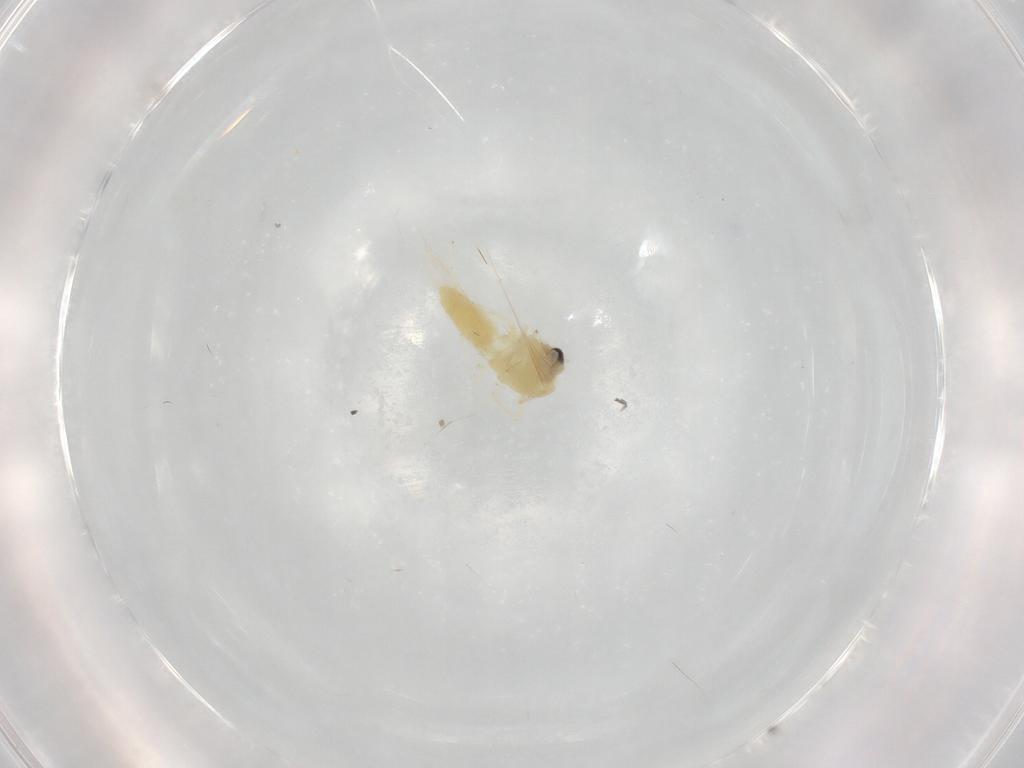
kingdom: Animalia
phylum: Arthropoda
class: Insecta
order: Diptera
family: Chironomidae
